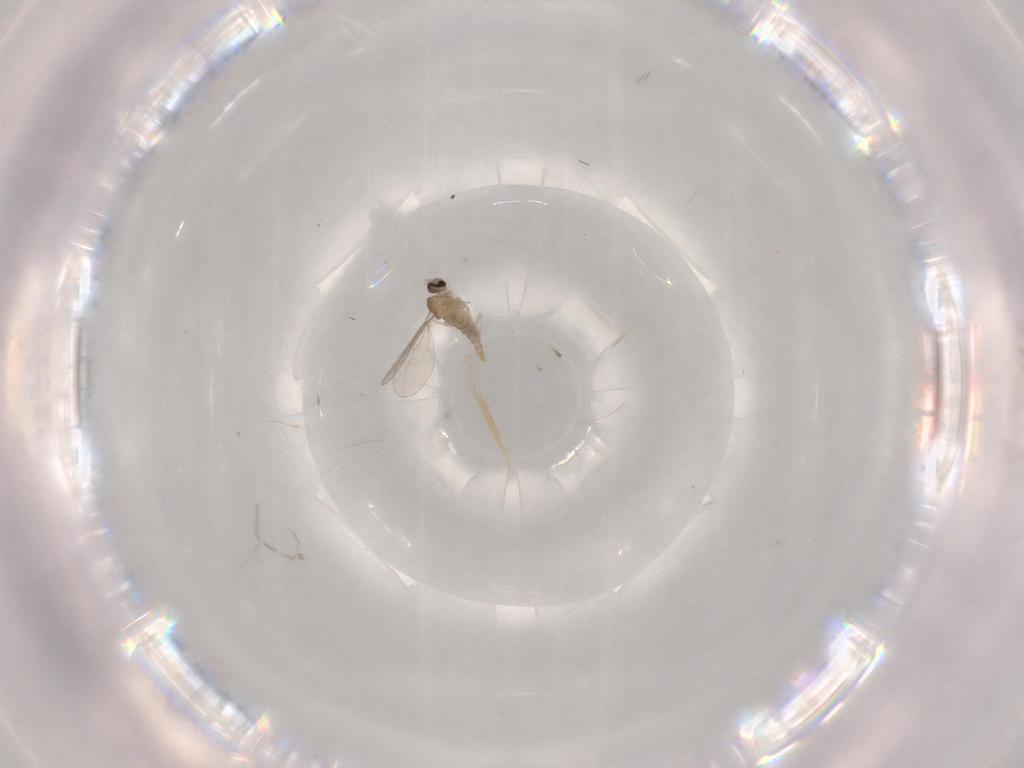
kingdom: Animalia
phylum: Arthropoda
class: Insecta
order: Diptera
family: Cecidomyiidae
